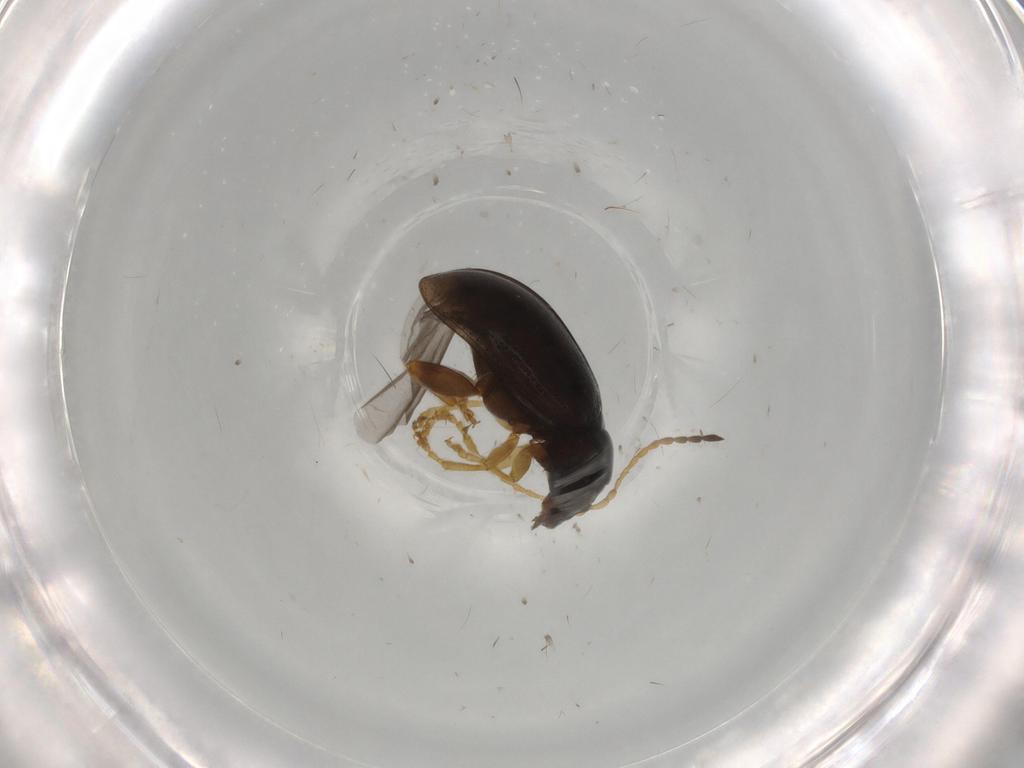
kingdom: Animalia
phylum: Arthropoda
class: Insecta
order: Coleoptera
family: Chrysomelidae
